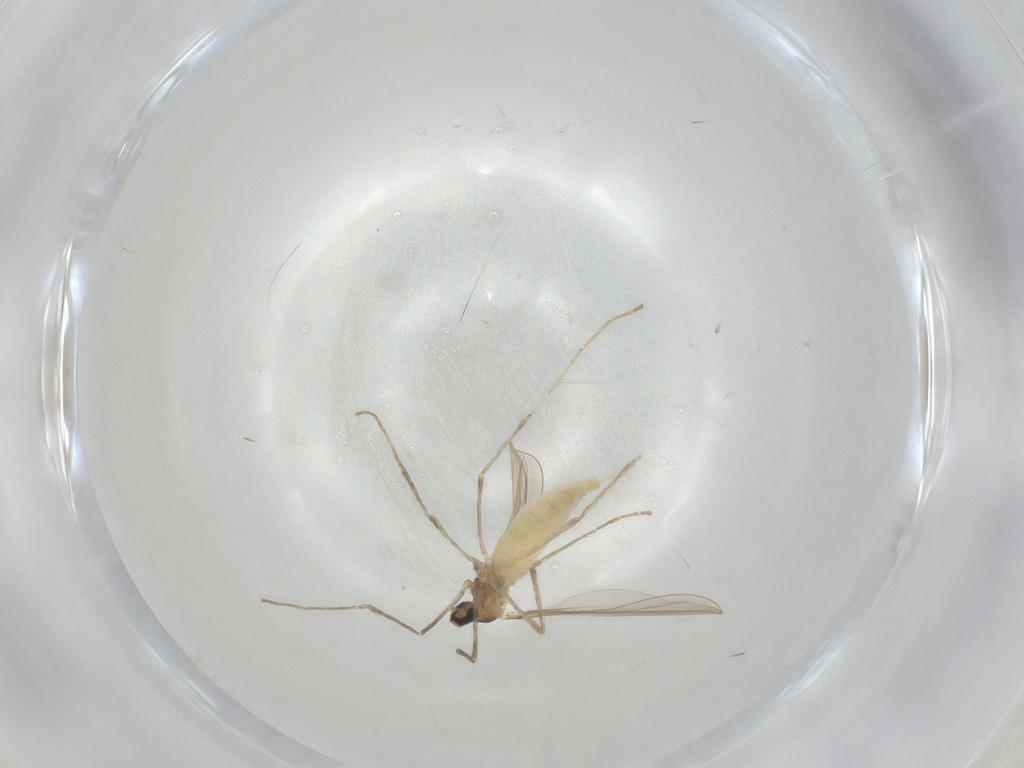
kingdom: Animalia
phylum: Arthropoda
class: Insecta
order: Diptera
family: Cecidomyiidae
